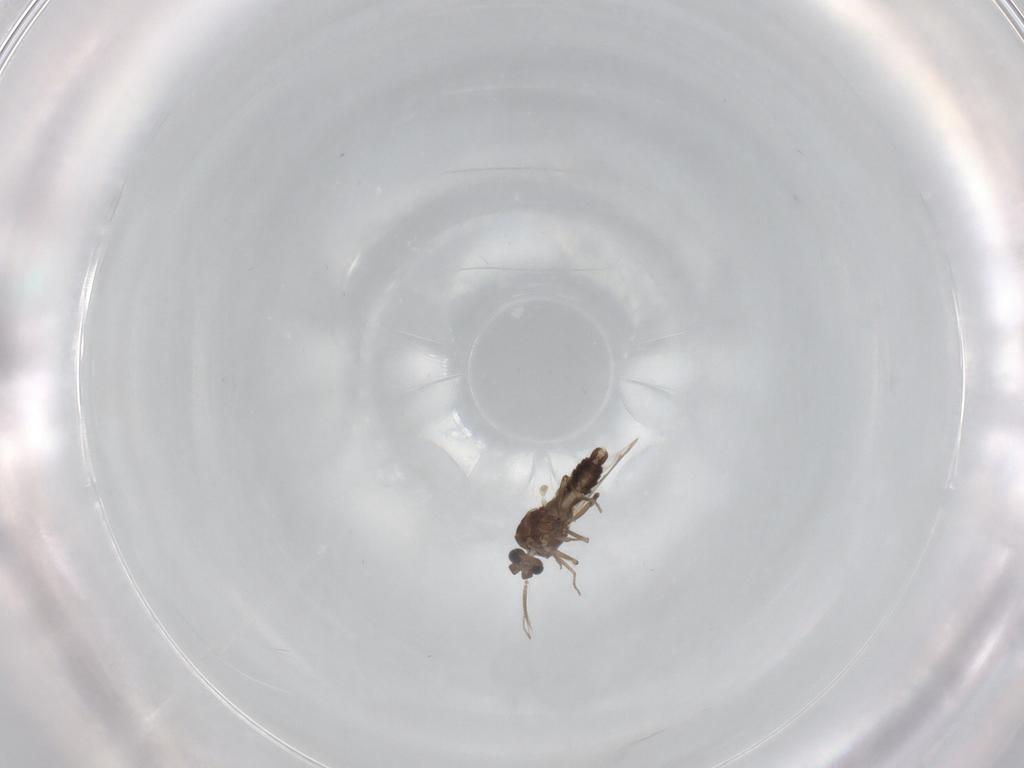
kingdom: Animalia
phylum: Arthropoda
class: Insecta
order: Diptera
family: Ceratopogonidae
